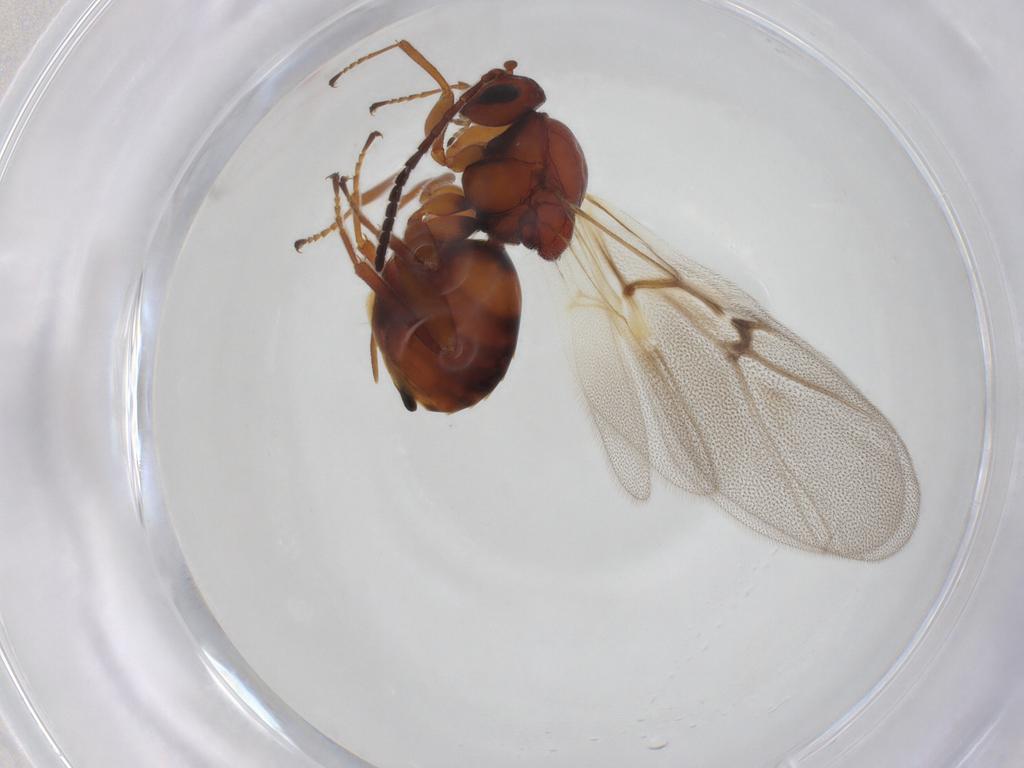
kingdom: Animalia
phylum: Arthropoda
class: Insecta
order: Hymenoptera
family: Cynipidae
